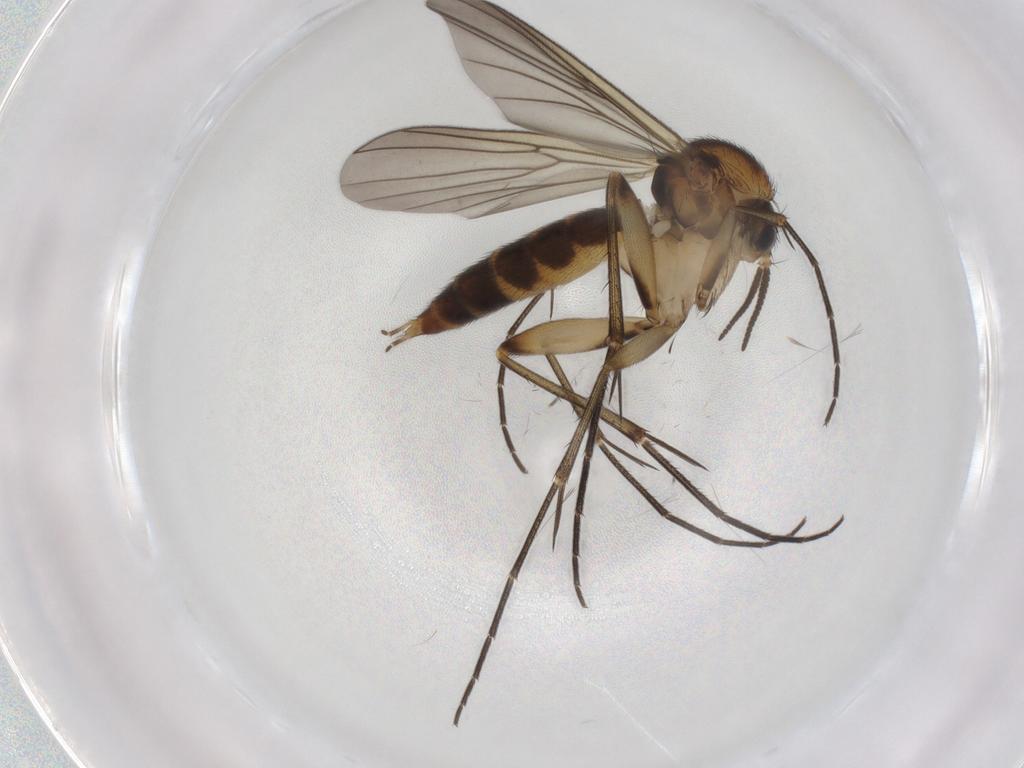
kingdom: Animalia
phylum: Arthropoda
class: Insecta
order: Diptera
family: Mycetophilidae
